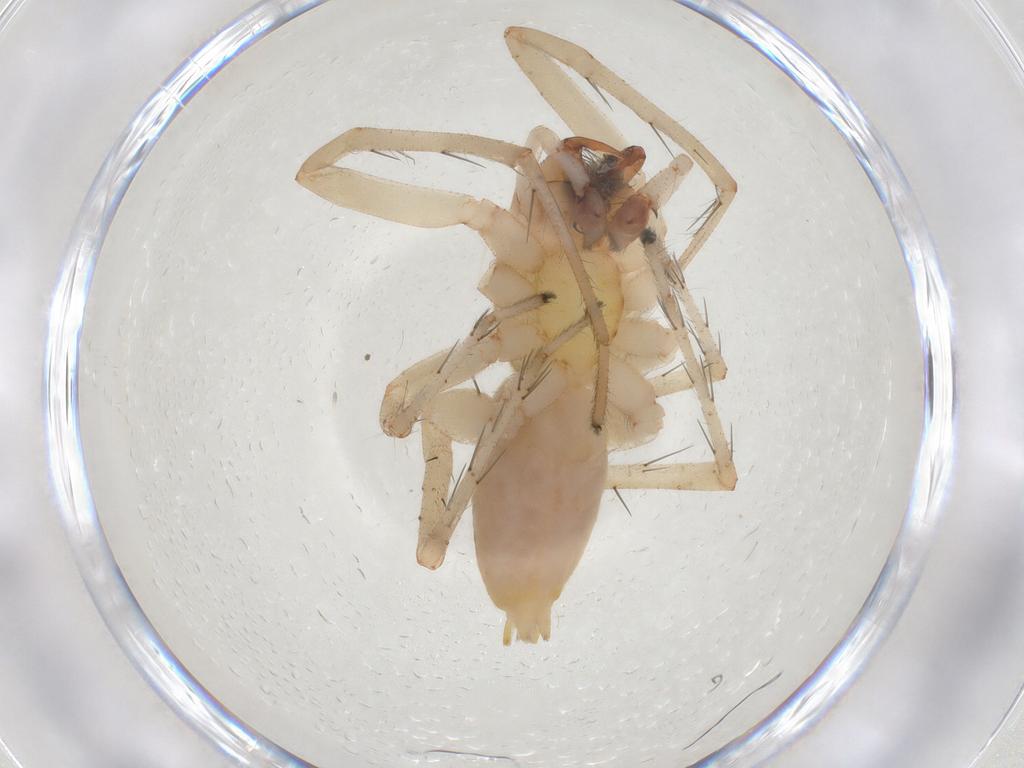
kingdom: Animalia
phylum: Arthropoda
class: Arachnida
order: Araneae
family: Anyphaenidae
